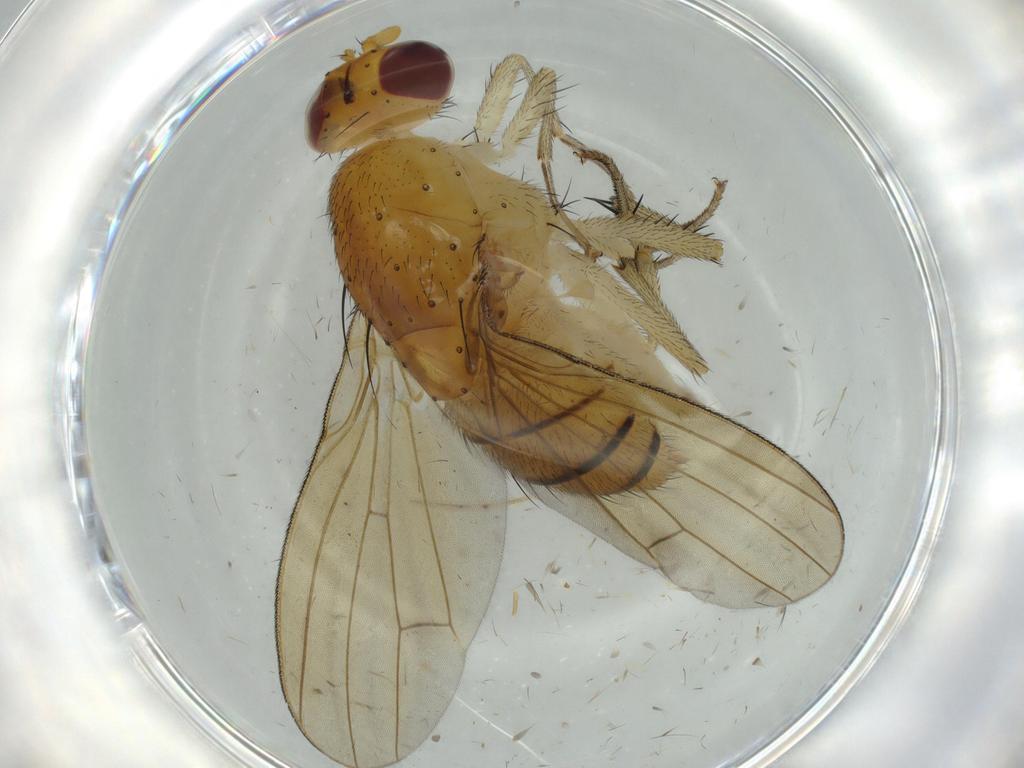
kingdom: Animalia
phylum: Arthropoda
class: Insecta
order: Diptera
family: Lauxaniidae
